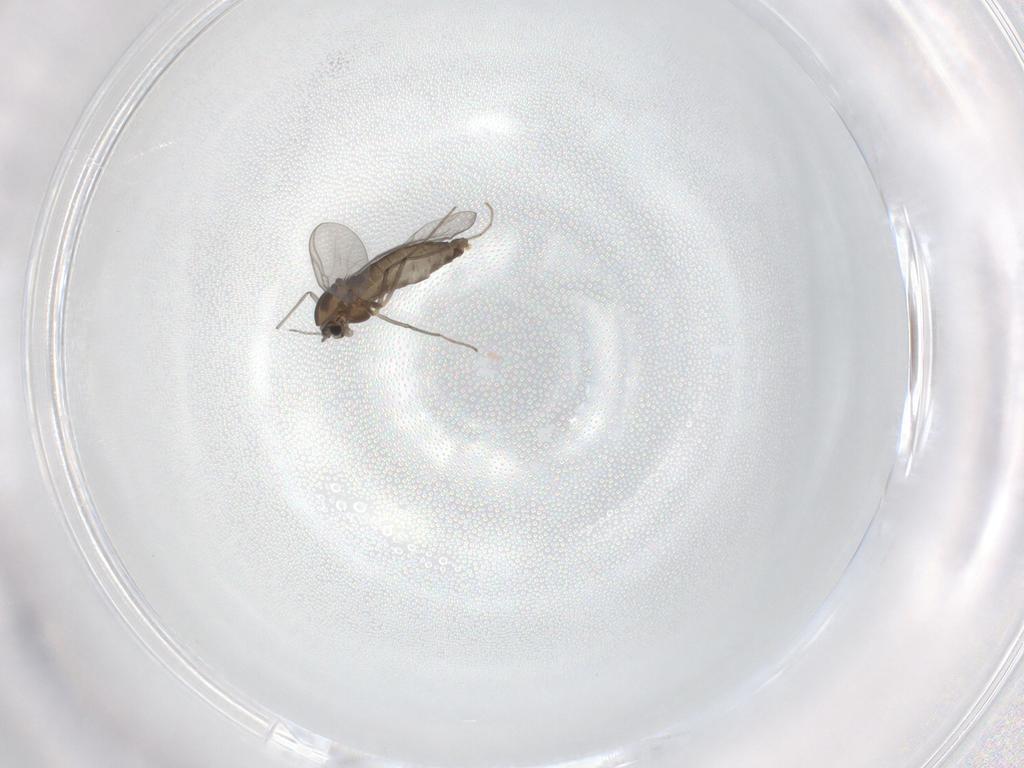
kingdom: Animalia
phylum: Arthropoda
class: Insecta
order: Diptera
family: Chironomidae
